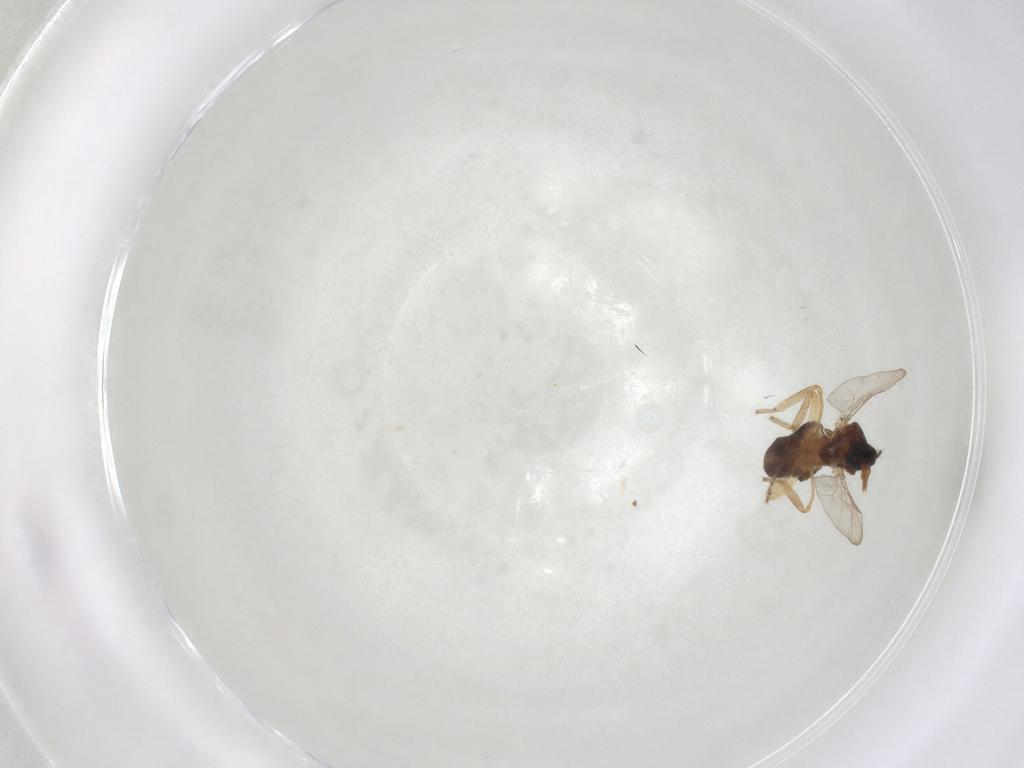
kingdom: Animalia
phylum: Arthropoda
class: Insecta
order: Diptera
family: Ceratopogonidae
